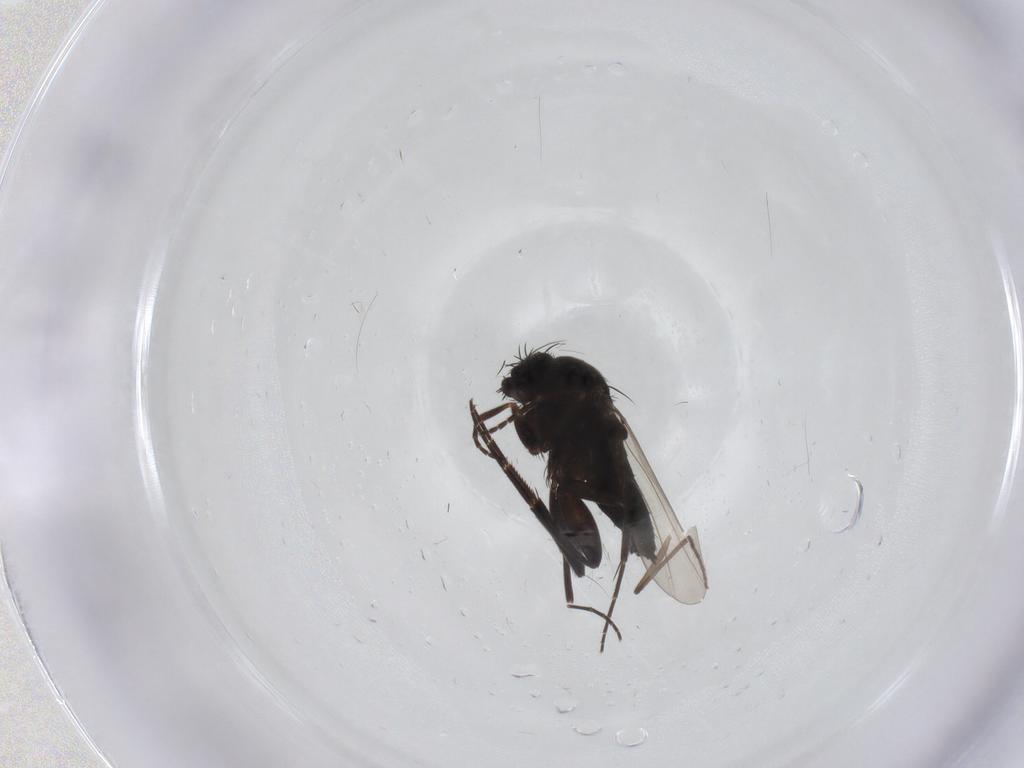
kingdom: Animalia
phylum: Arthropoda
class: Insecta
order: Diptera
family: Phoridae
